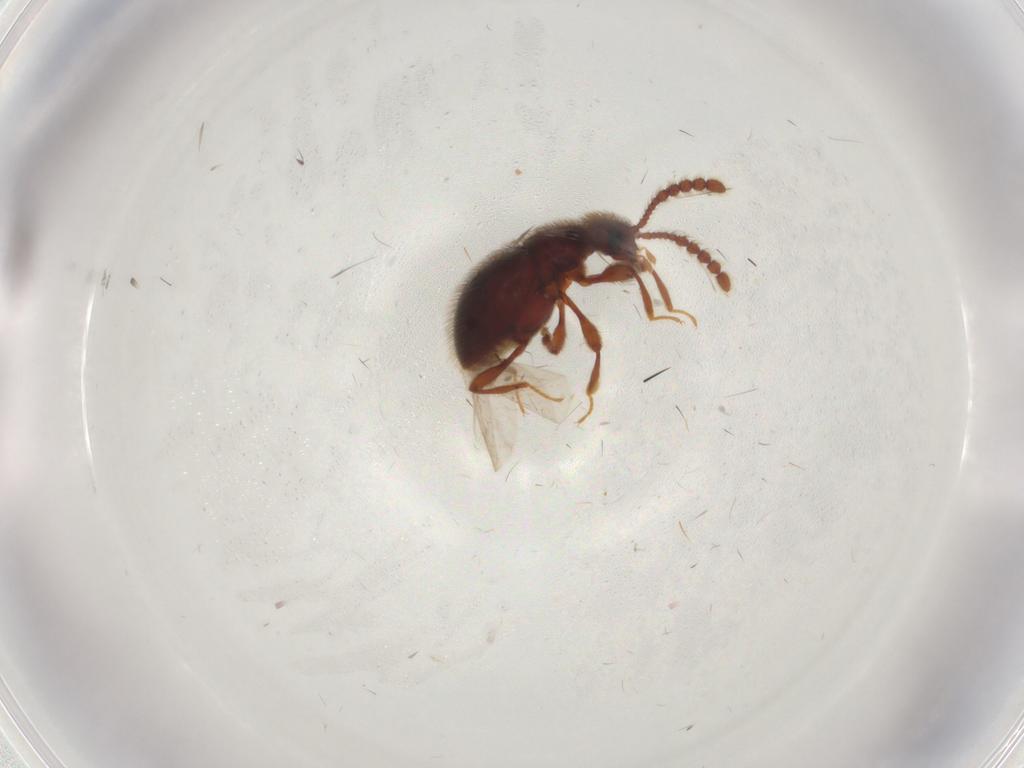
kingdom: Animalia
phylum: Arthropoda
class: Insecta
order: Coleoptera
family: Staphylinidae
